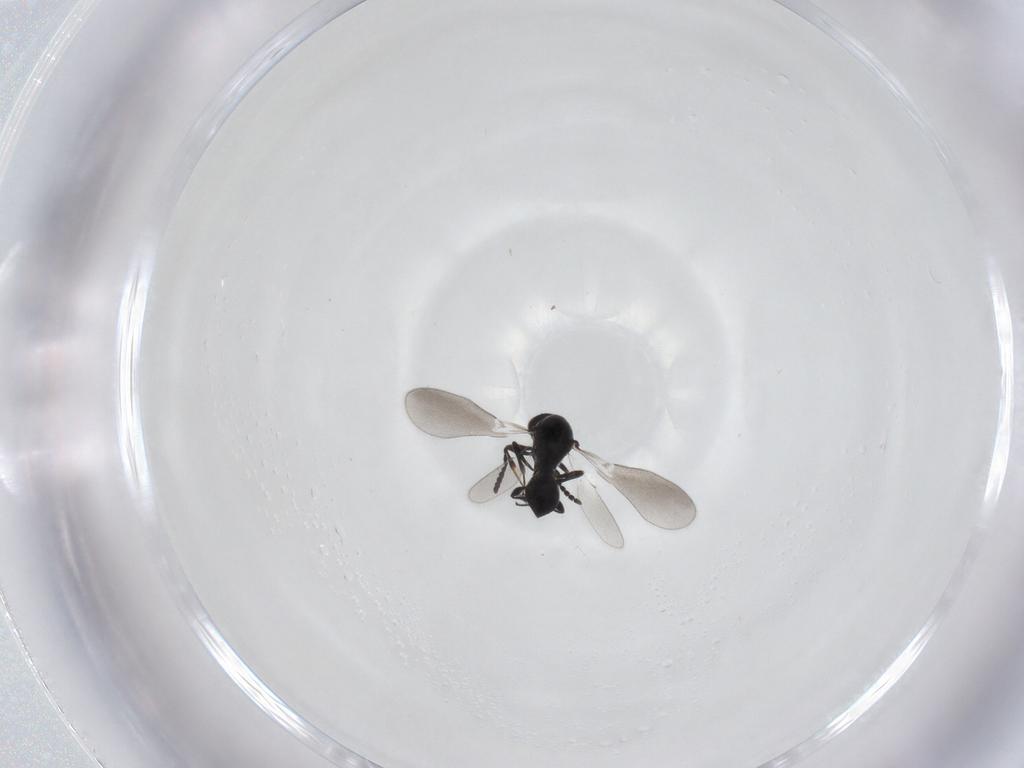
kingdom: Animalia
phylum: Arthropoda
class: Insecta
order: Hymenoptera
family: Platygastridae
